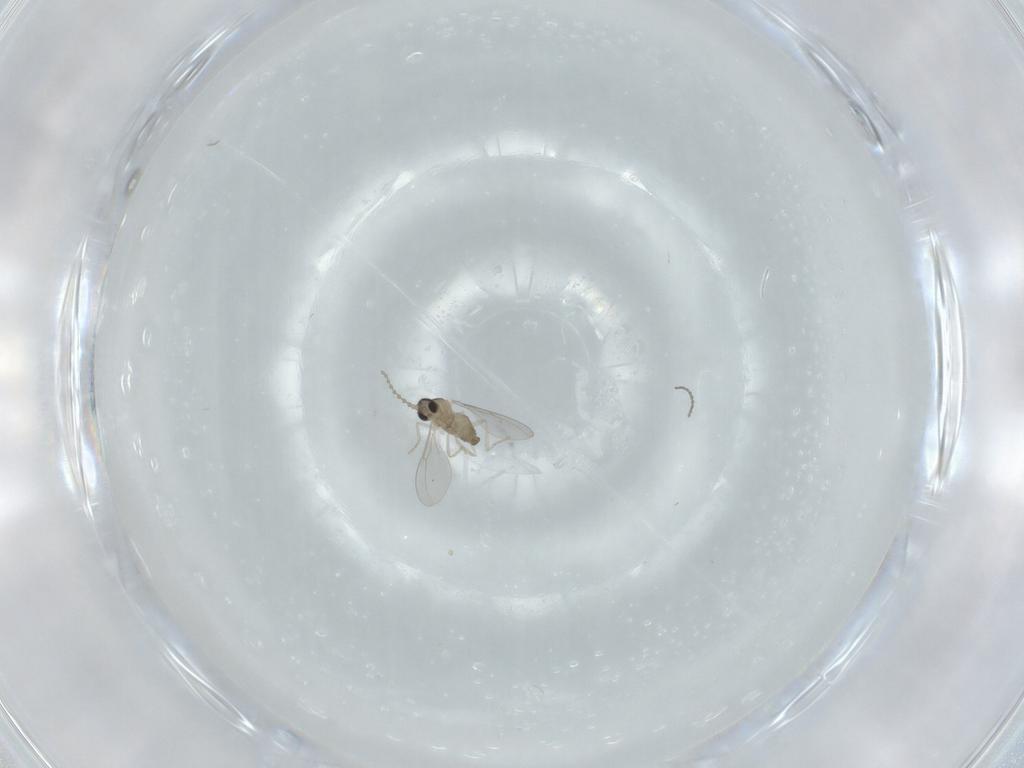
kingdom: Animalia
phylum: Arthropoda
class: Insecta
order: Diptera
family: Cecidomyiidae
